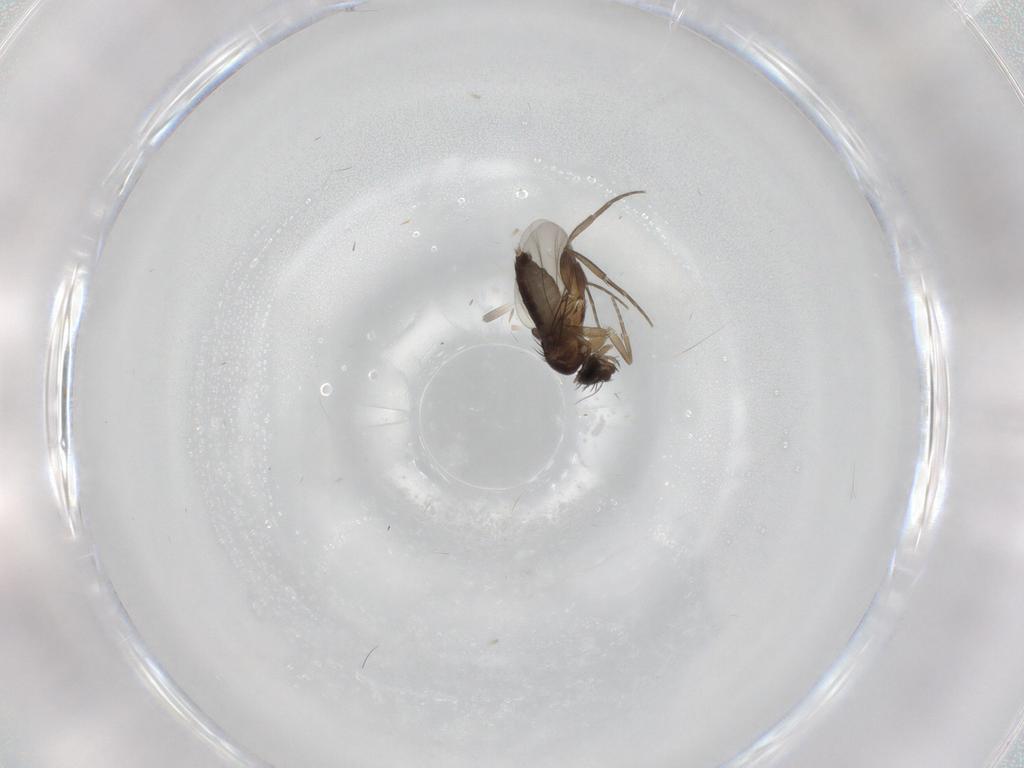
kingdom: Animalia
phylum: Arthropoda
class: Insecta
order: Diptera
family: Phoridae
